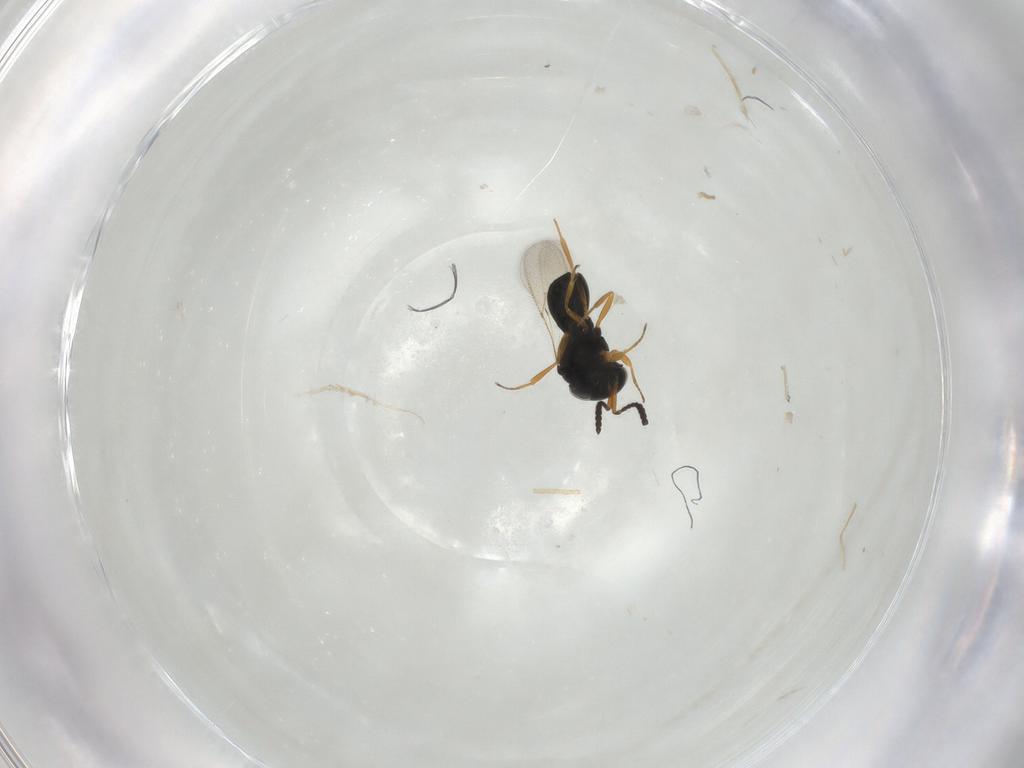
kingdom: Animalia
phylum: Arthropoda
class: Insecta
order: Hymenoptera
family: Scelionidae
